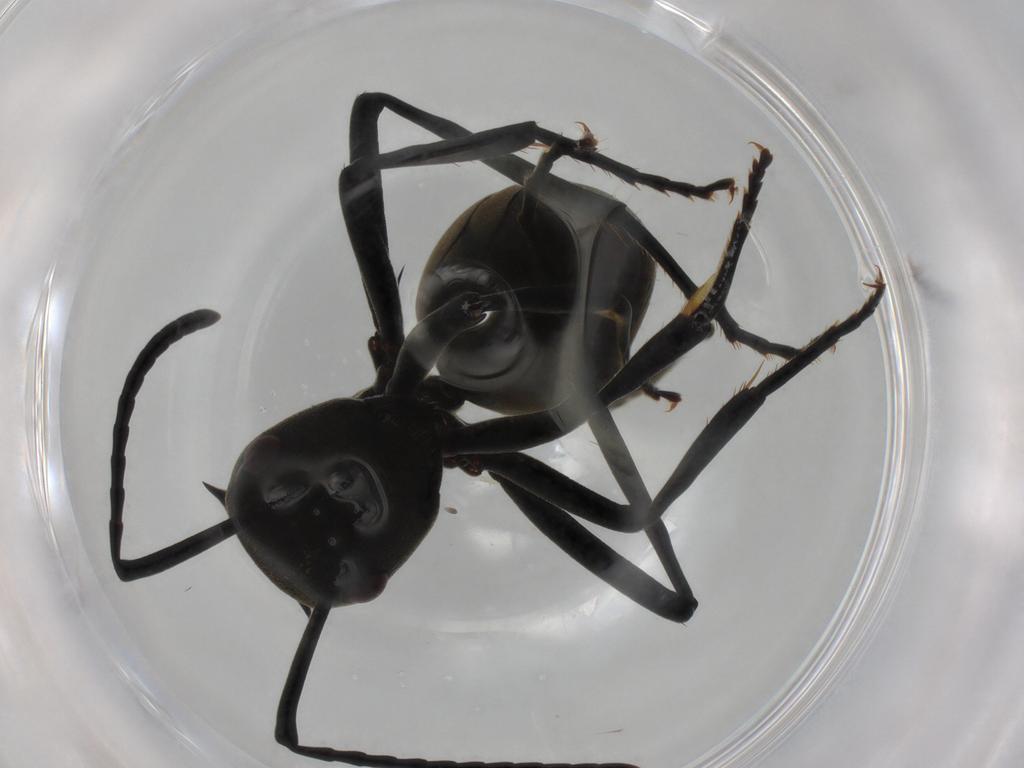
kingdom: Animalia
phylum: Arthropoda
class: Insecta
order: Hymenoptera
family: Formicidae
